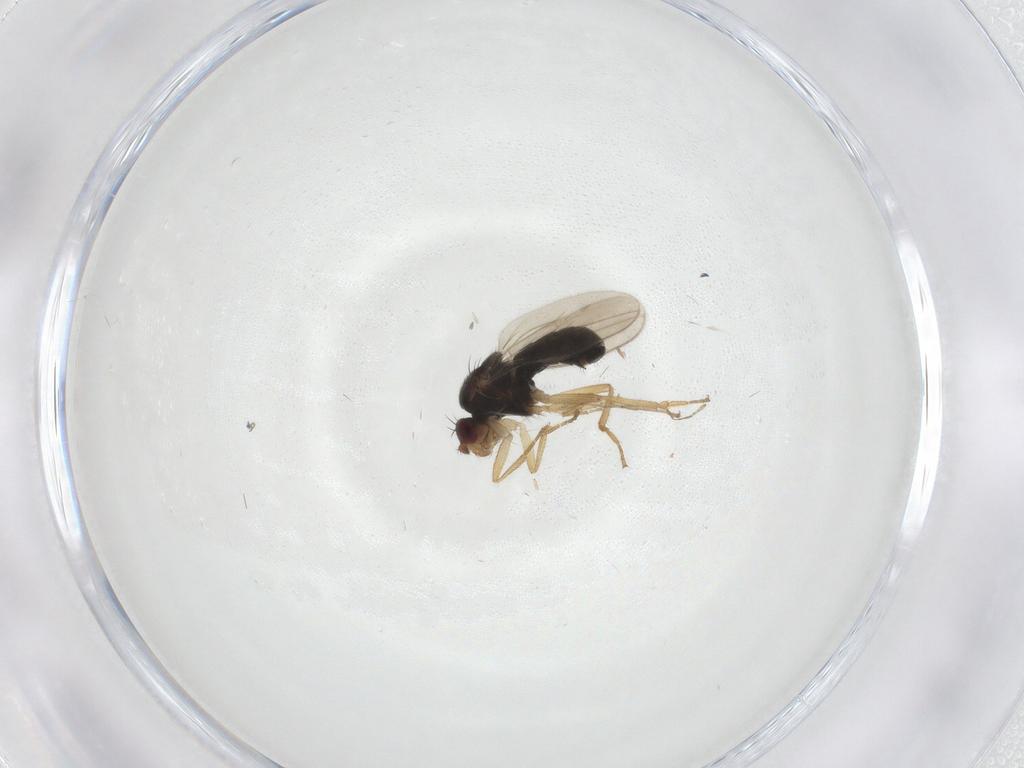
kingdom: Animalia
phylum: Arthropoda
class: Insecta
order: Diptera
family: Sphaeroceridae
